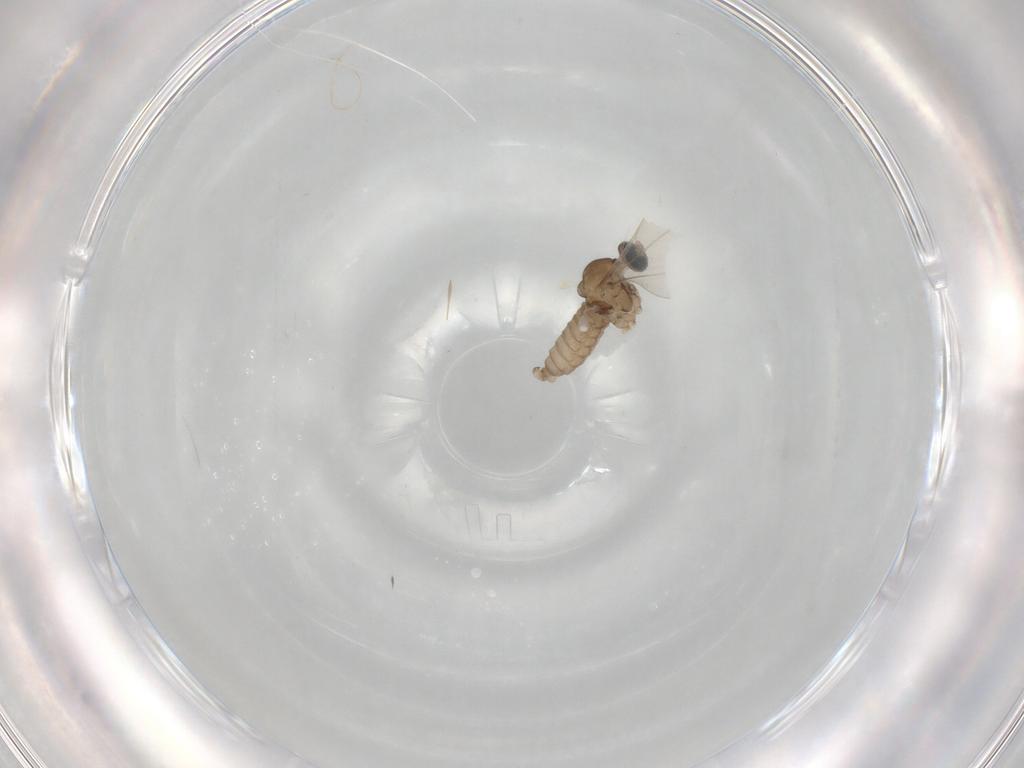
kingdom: Animalia
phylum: Arthropoda
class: Insecta
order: Diptera
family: Cecidomyiidae
